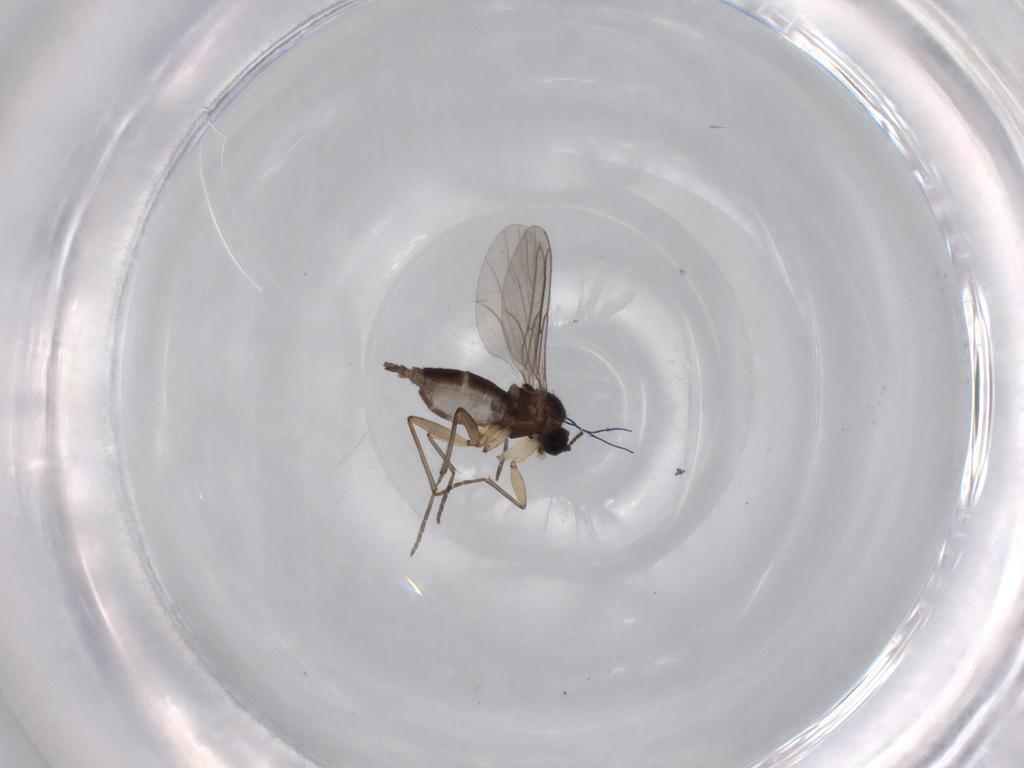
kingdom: Animalia
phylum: Arthropoda
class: Insecta
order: Diptera
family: Sciaridae
